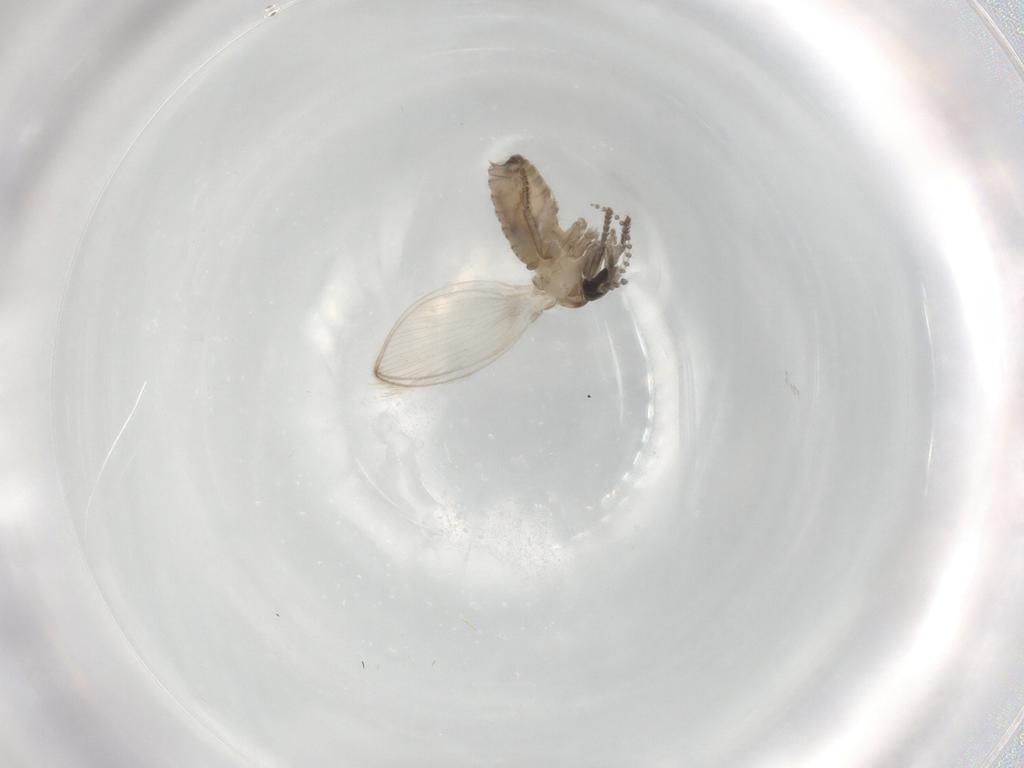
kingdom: Animalia
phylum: Arthropoda
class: Insecta
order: Diptera
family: Psychodidae
